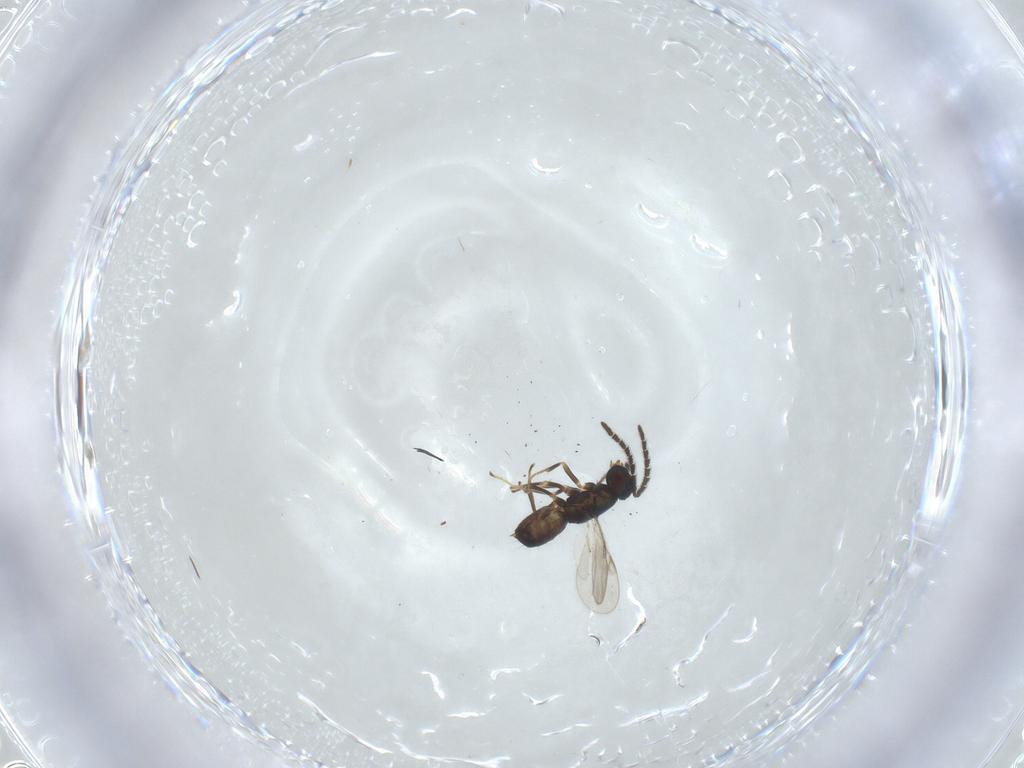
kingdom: Animalia
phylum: Arthropoda
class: Insecta
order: Hymenoptera
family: Encyrtidae
